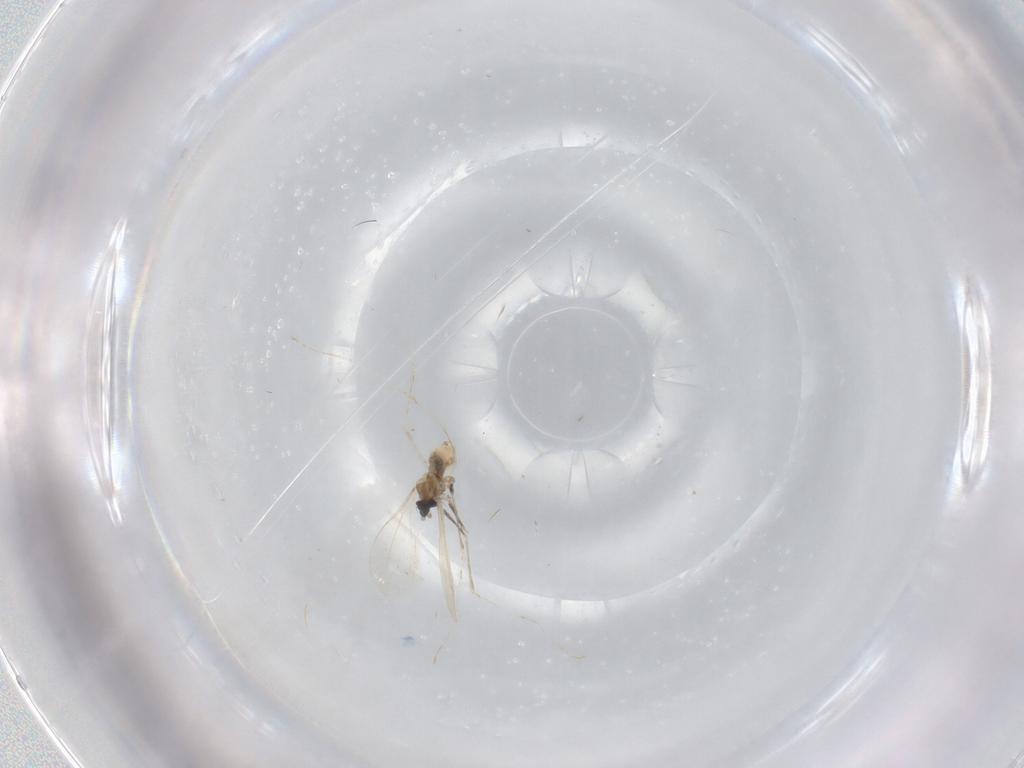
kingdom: Animalia
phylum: Arthropoda
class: Insecta
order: Diptera
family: Cecidomyiidae
